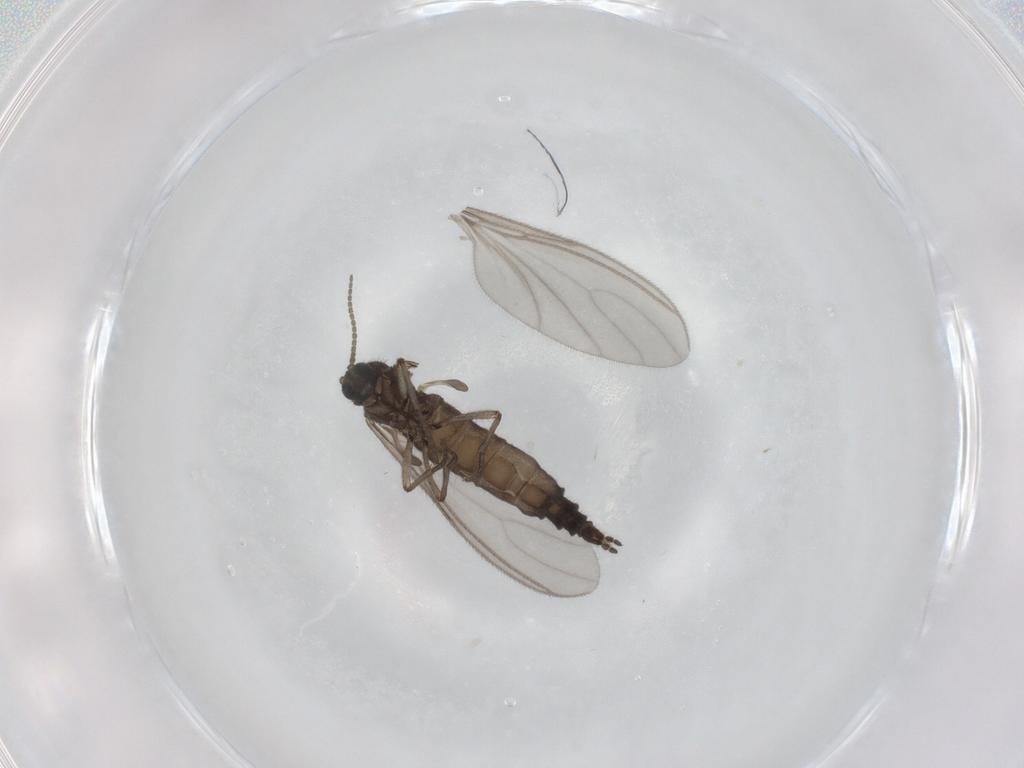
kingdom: Animalia
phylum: Arthropoda
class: Insecta
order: Diptera
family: Sciaridae
